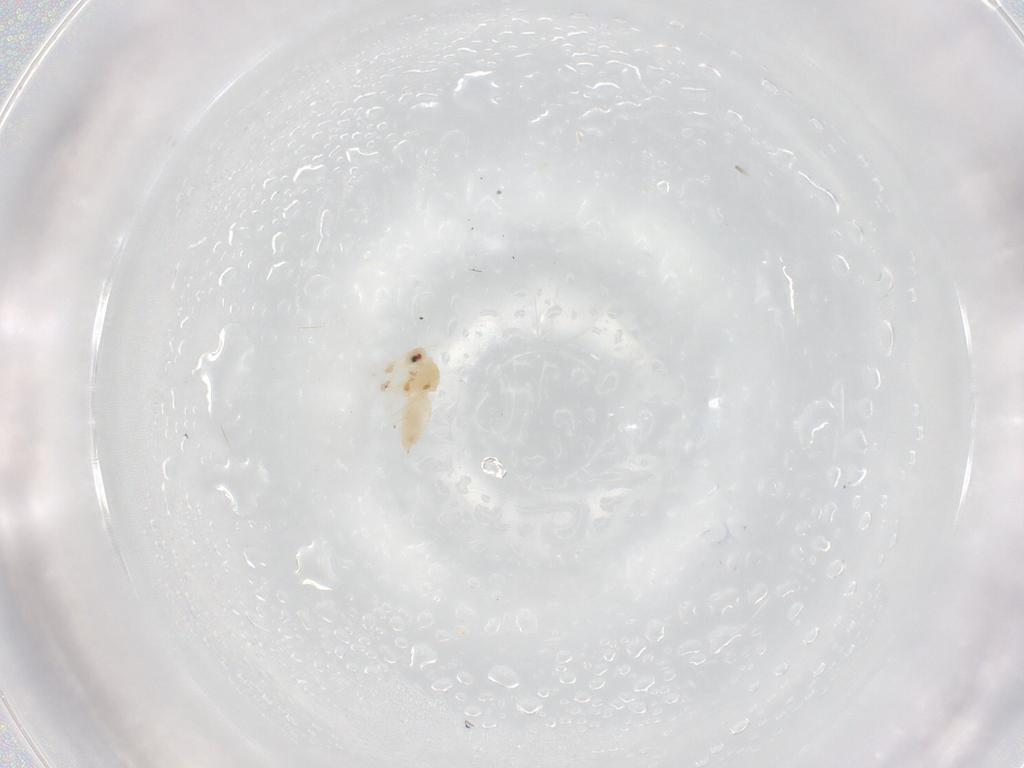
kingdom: Animalia
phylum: Arthropoda
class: Insecta
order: Hemiptera
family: Aleyrodidae
